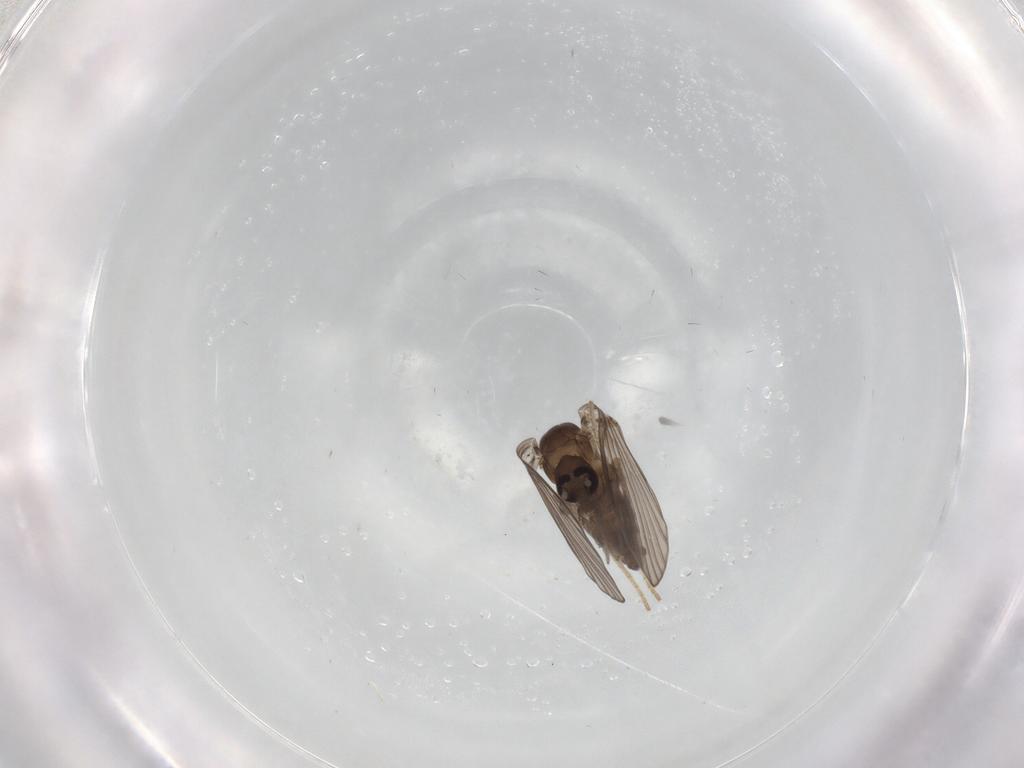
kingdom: Animalia
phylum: Arthropoda
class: Insecta
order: Diptera
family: Psychodidae
